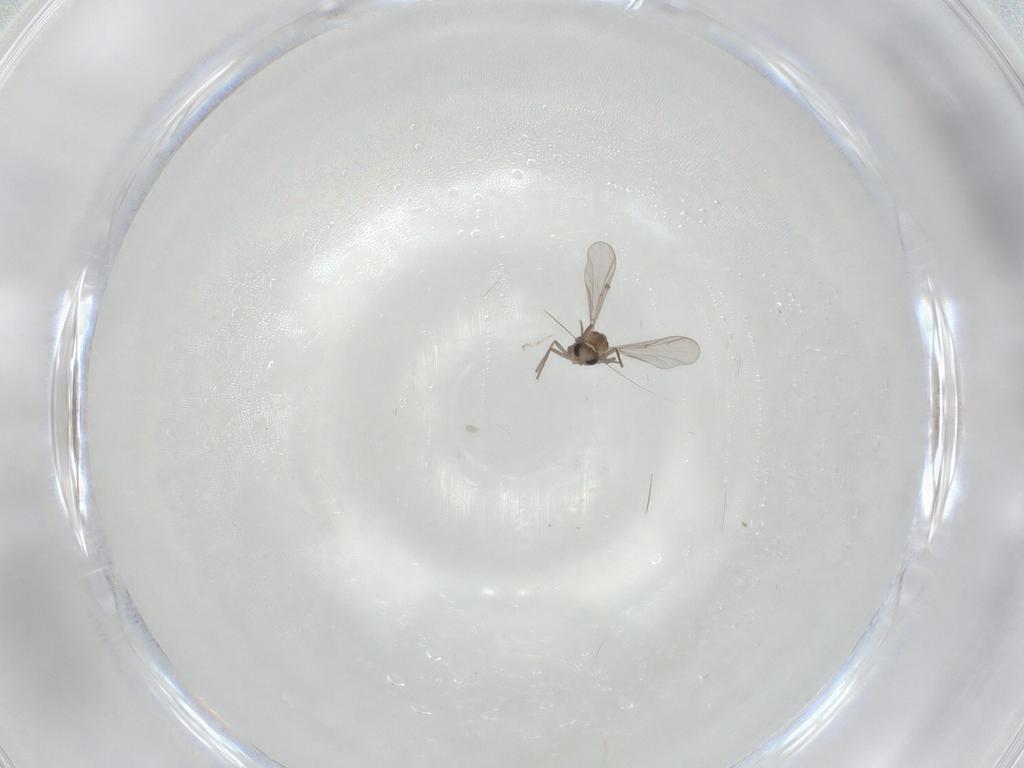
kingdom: Animalia
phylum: Arthropoda
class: Insecta
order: Diptera
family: Chironomidae
